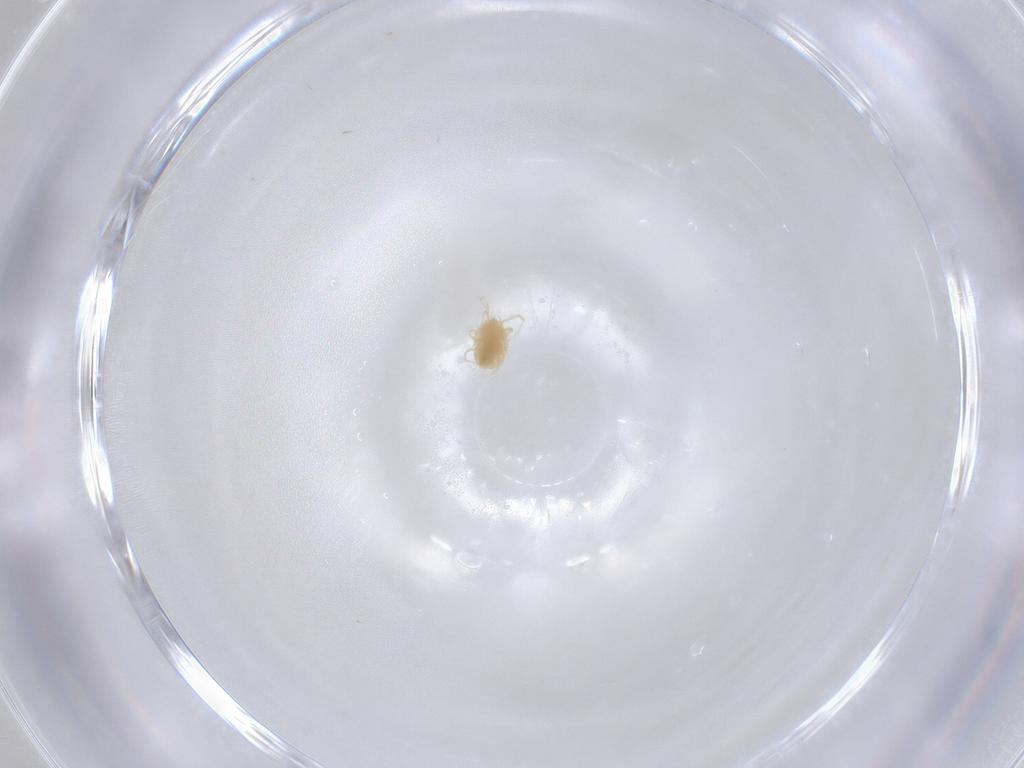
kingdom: Animalia
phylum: Arthropoda
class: Arachnida
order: Trombidiformes
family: Tetranychidae
